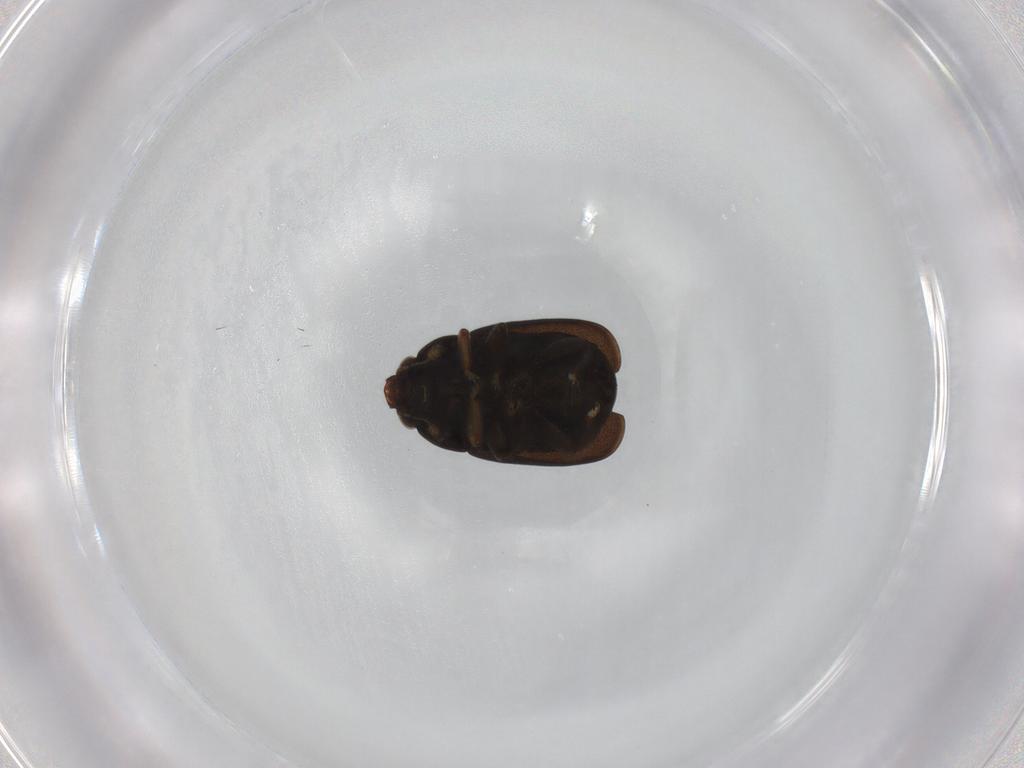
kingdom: Animalia
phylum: Arthropoda
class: Insecta
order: Coleoptera
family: Nitidulidae
